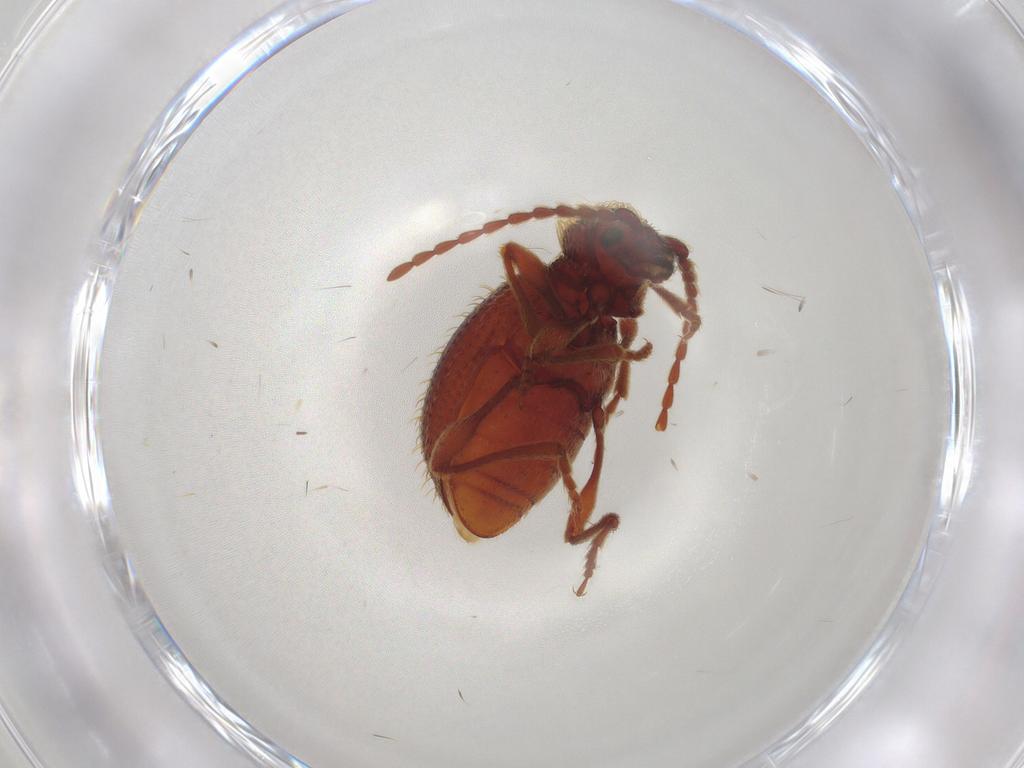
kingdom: Animalia
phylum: Arthropoda
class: Insecta
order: Coleoptera
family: Ptinidae
